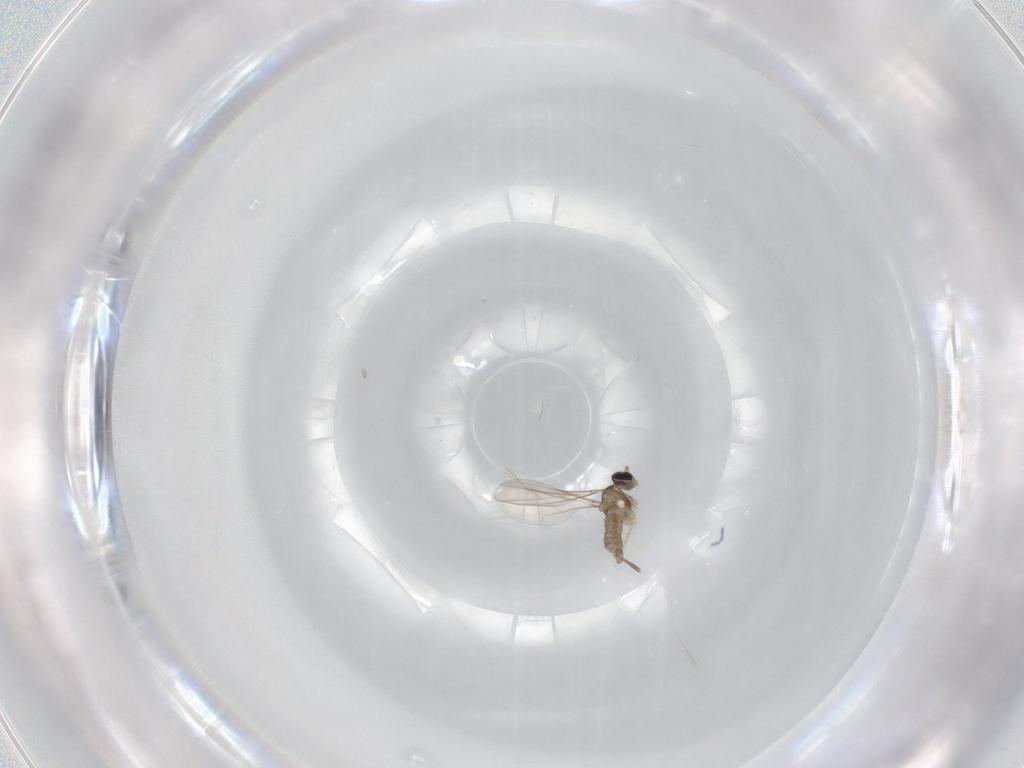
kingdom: Animalia
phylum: Arthropoda
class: Insecta
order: Diptera
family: Cecidomyiidae
